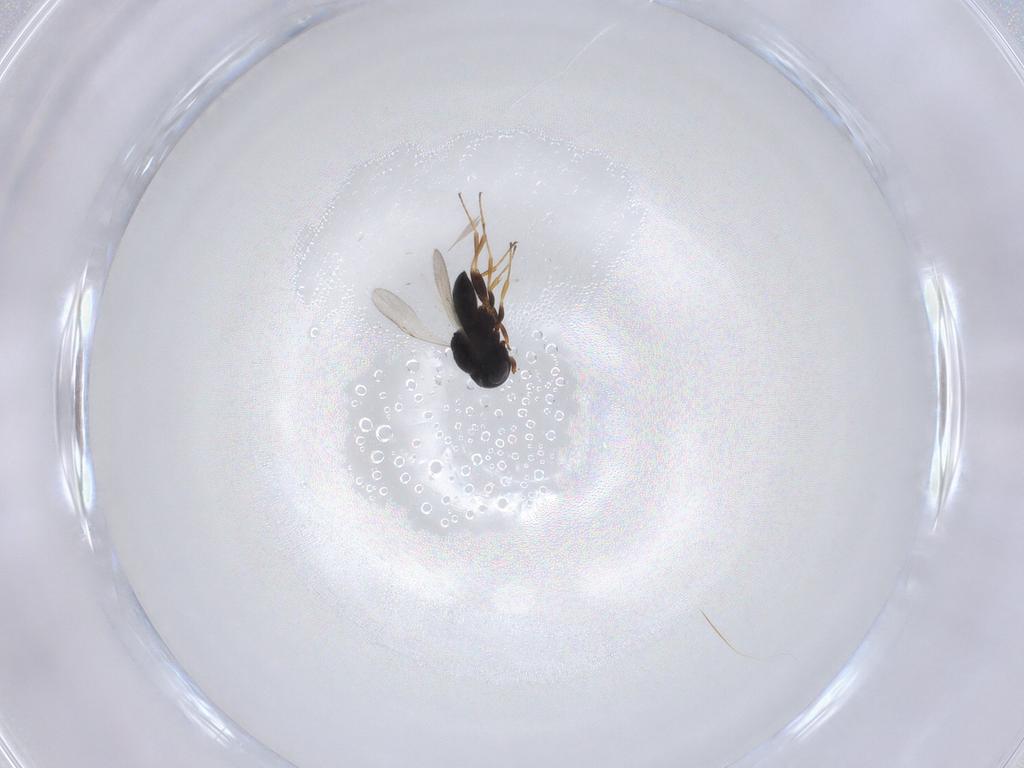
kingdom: Animalia
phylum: Arthropoda
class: Insecta
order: Coleoptera
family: Curculionidae
